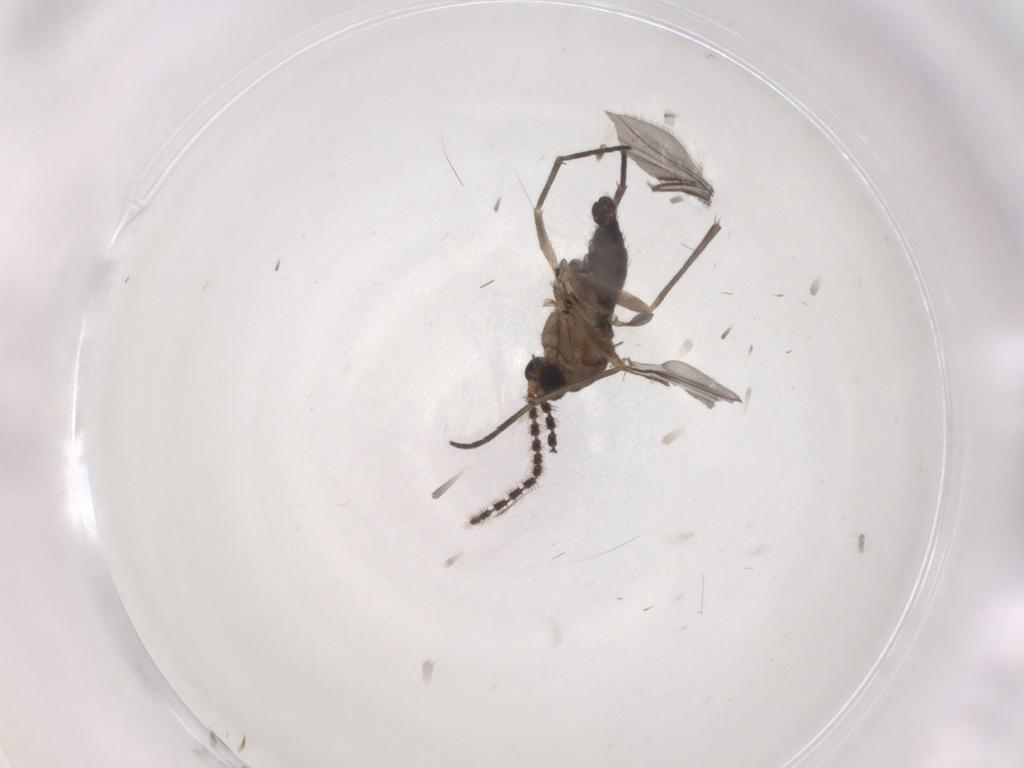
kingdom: Animalia
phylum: Arthropoda
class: Insecta
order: Diptera
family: Sciaridae
